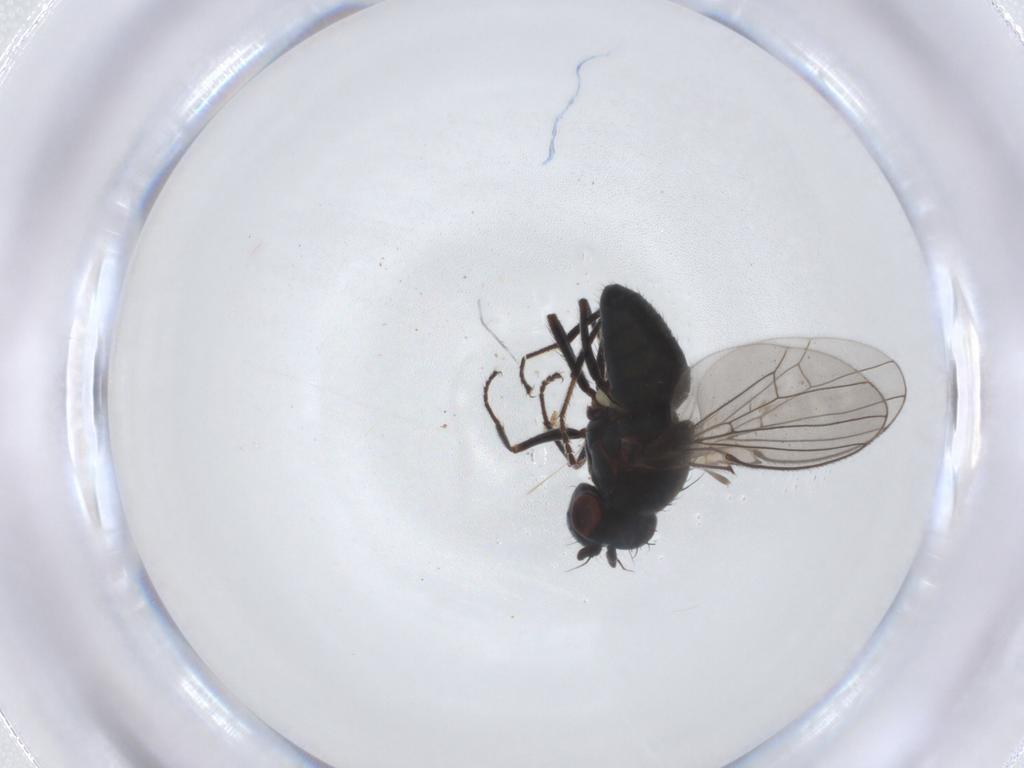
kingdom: Animalia
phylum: Arthropoda
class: Insecta
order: Diptera
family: Ephydridae
